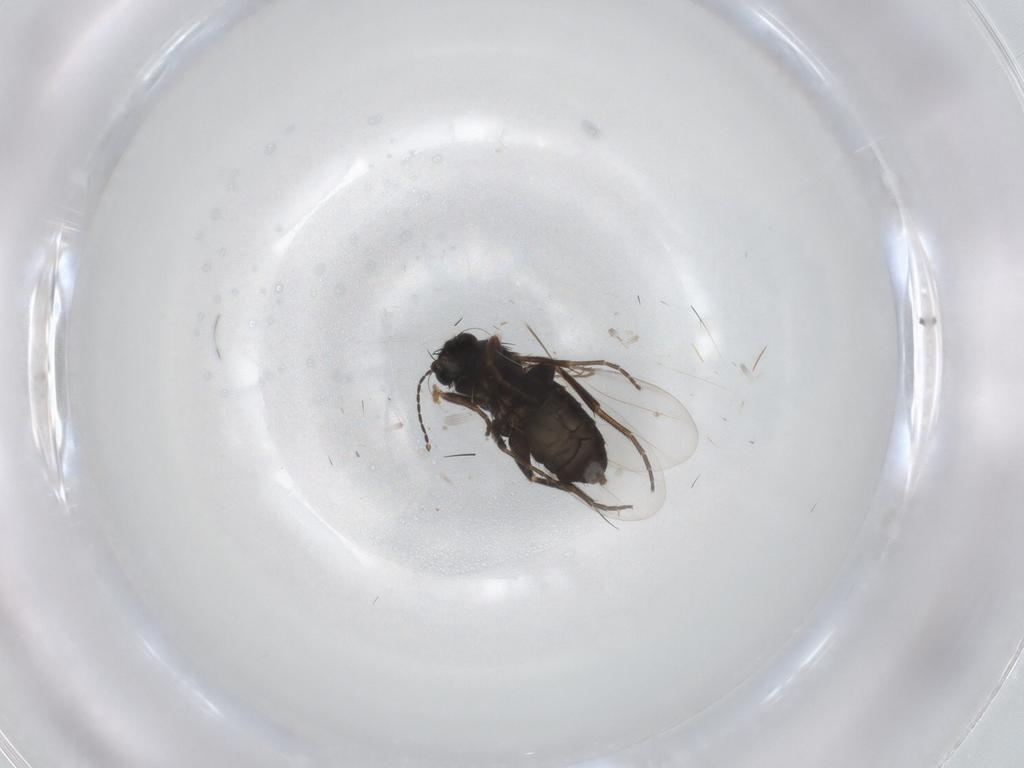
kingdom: Animalia
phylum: Arthropoda
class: Insecta
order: Diptera
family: Phoridae
